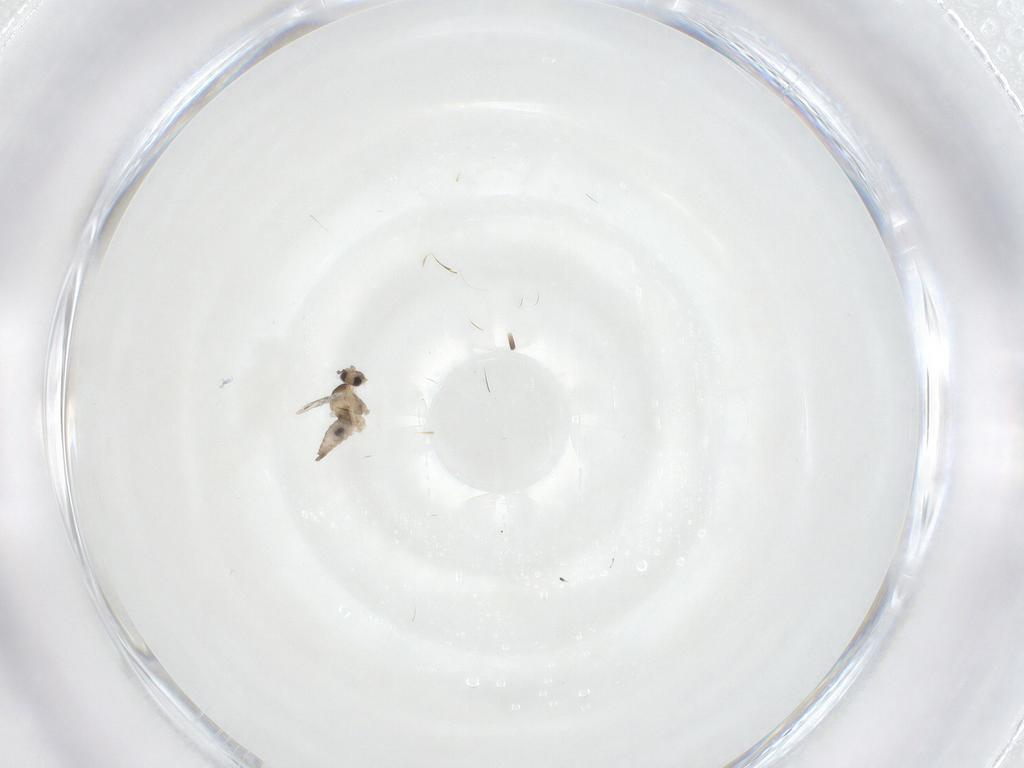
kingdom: Animalia
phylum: Arthropoda
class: Insecta
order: Diptera
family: Cecidomyiidae
